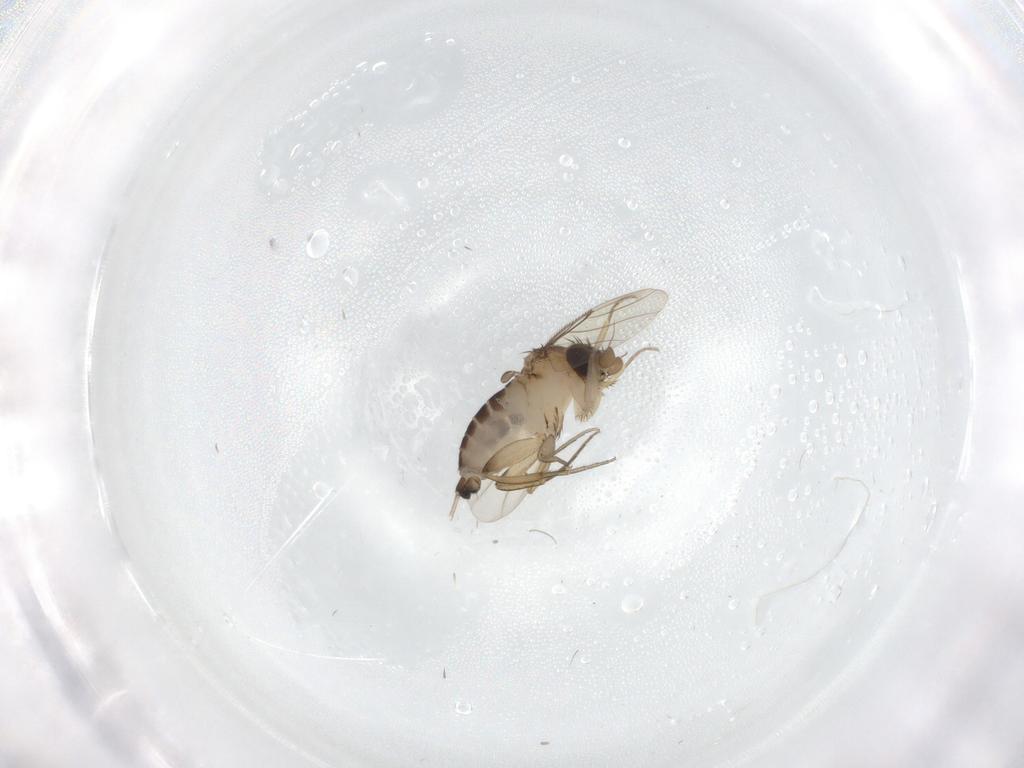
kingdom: Animalia
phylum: Arthropoda
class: Insecta
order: Diptera
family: Phoridae
